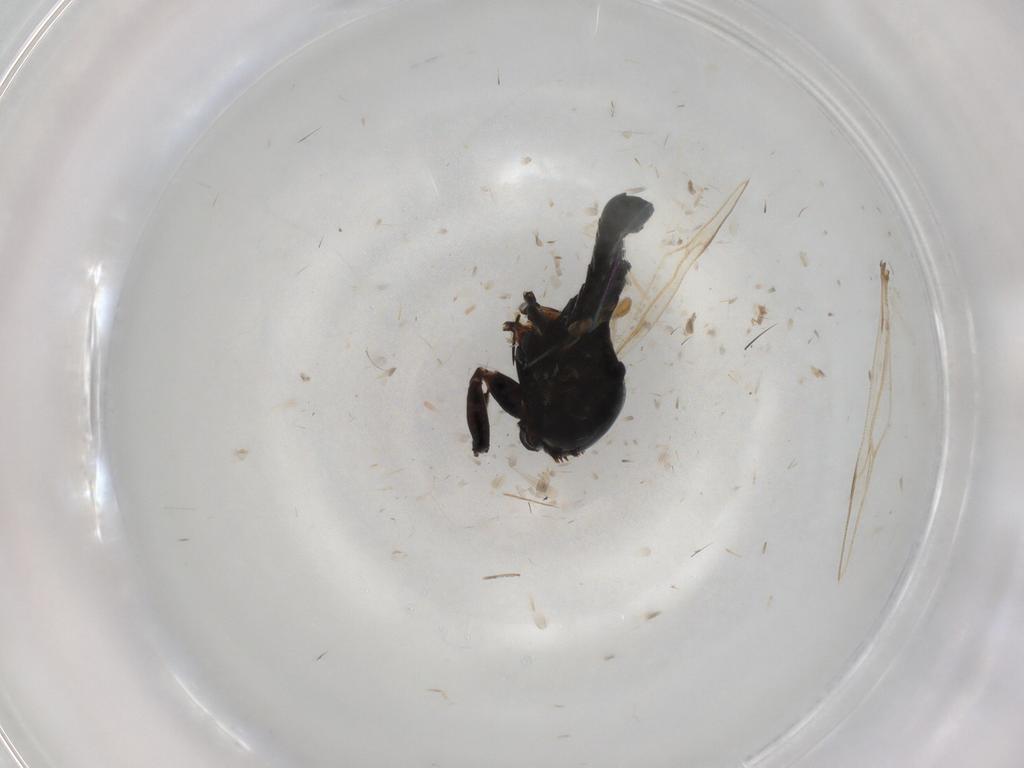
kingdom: Animalia
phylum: Arthropoda
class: Insecta
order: Diptera
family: Bibionidae
